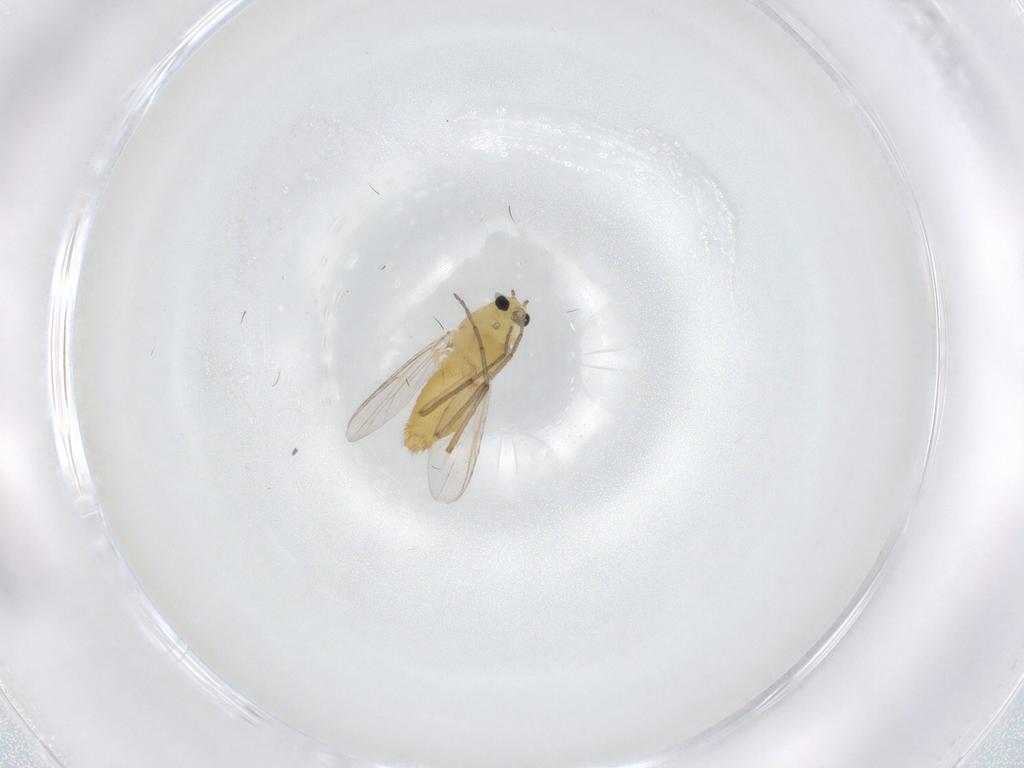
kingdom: Animalia
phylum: Arthropoda
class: Insecta
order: Diptera
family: Chironomidae
